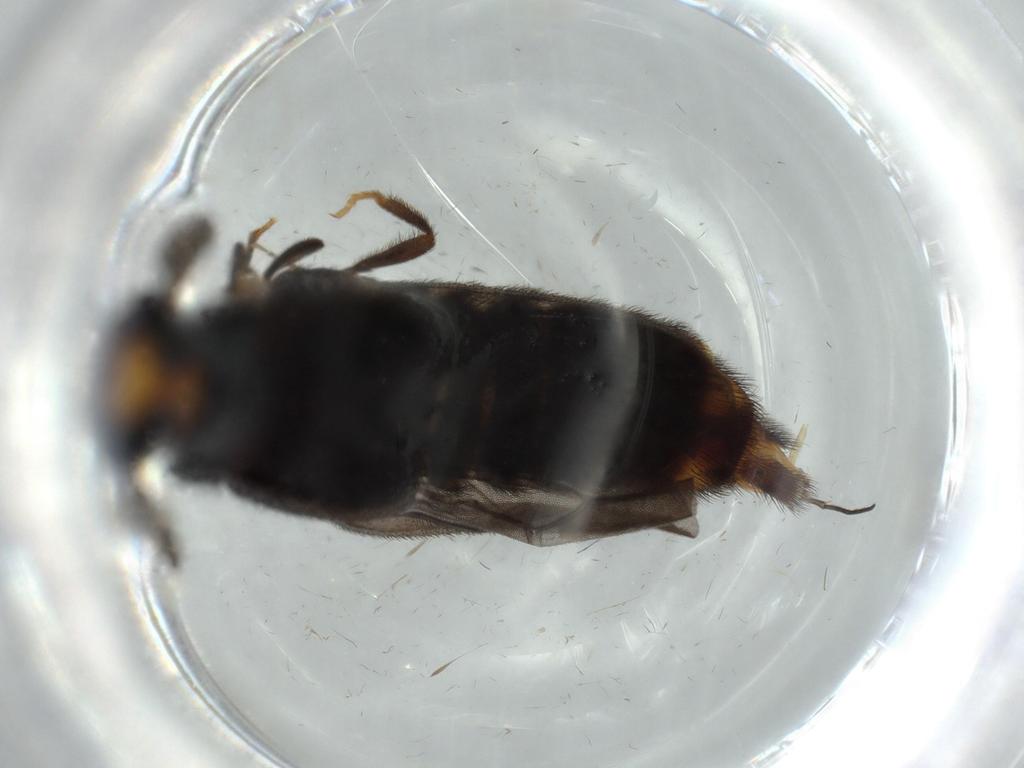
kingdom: Animalia
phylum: Arthropoda
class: Insecta
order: Coleoptera
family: Phengodidae
